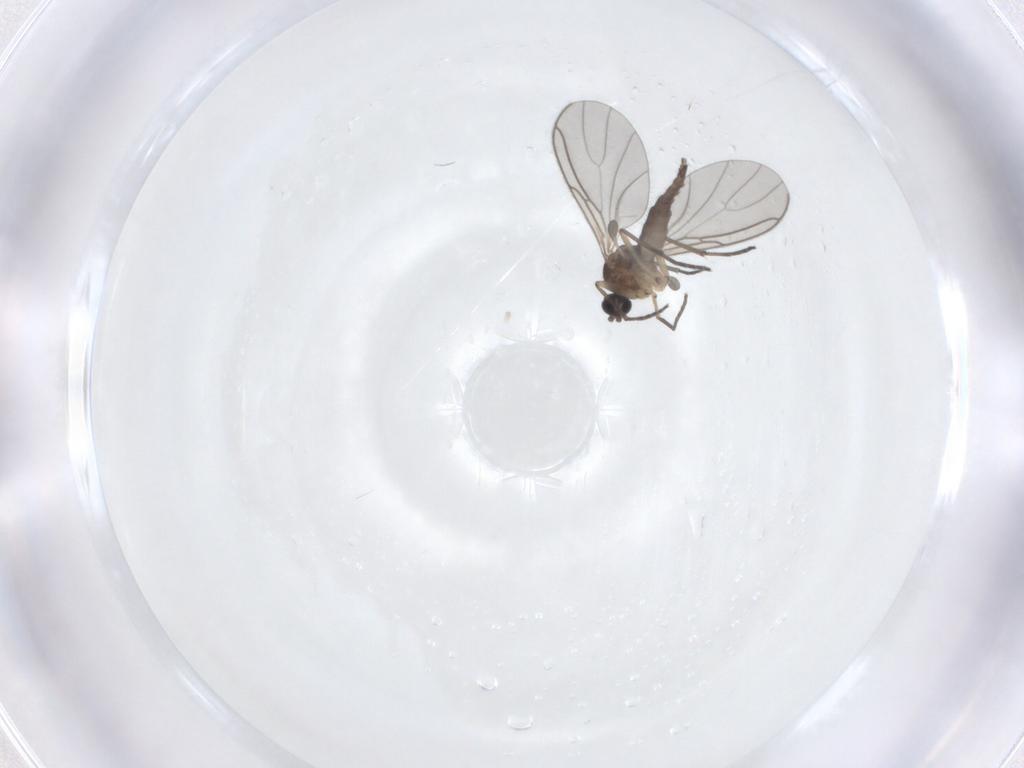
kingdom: Animalia
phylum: Arthropoda
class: Insecta
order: Diptera
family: Sciaridae
